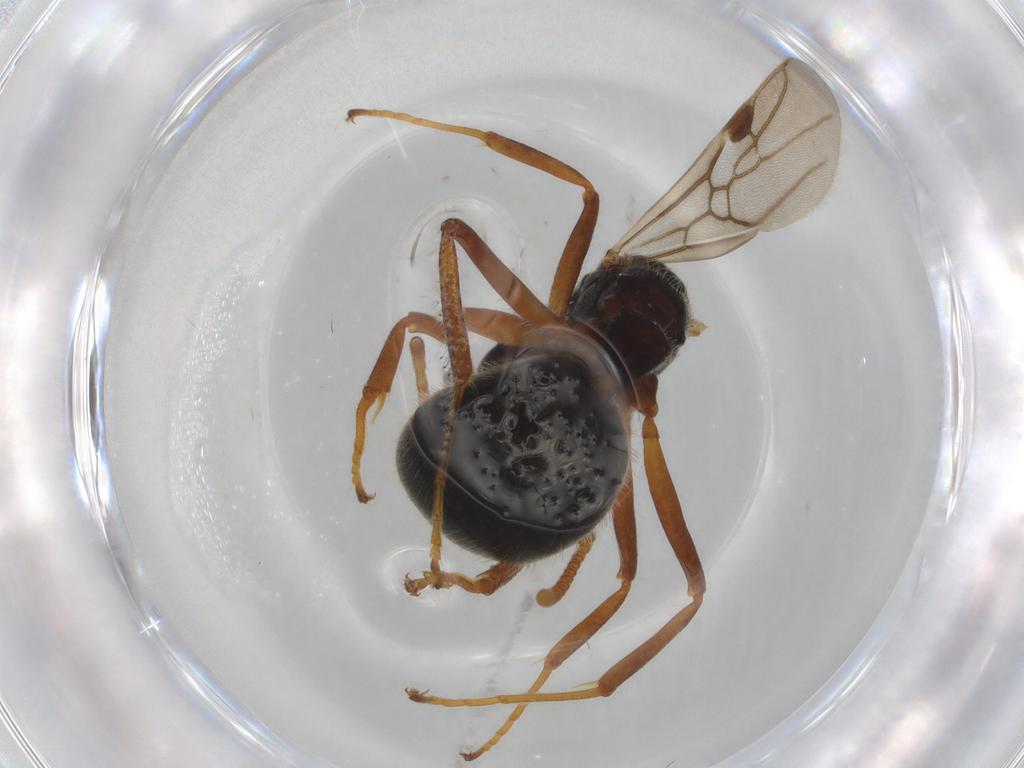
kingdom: Animalia
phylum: Arthropoda
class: Insecta
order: Hymenoptera
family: Formicidae
